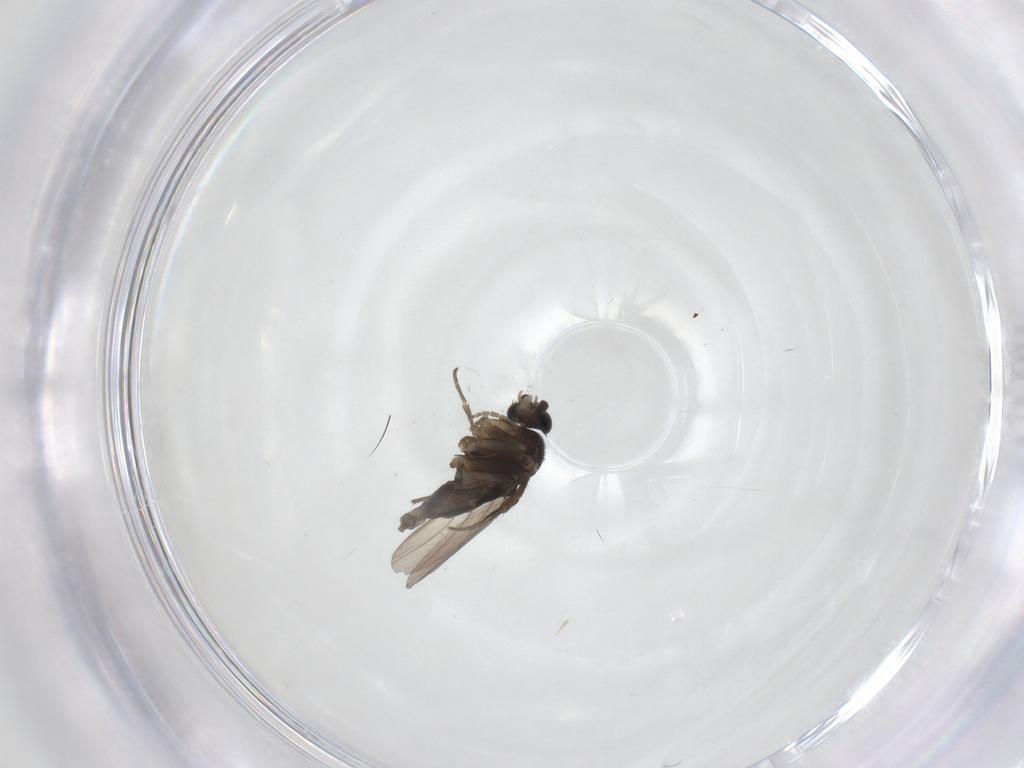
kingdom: Animalia
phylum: Arthropoda
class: Insecta
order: Diptera
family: Phoridae
